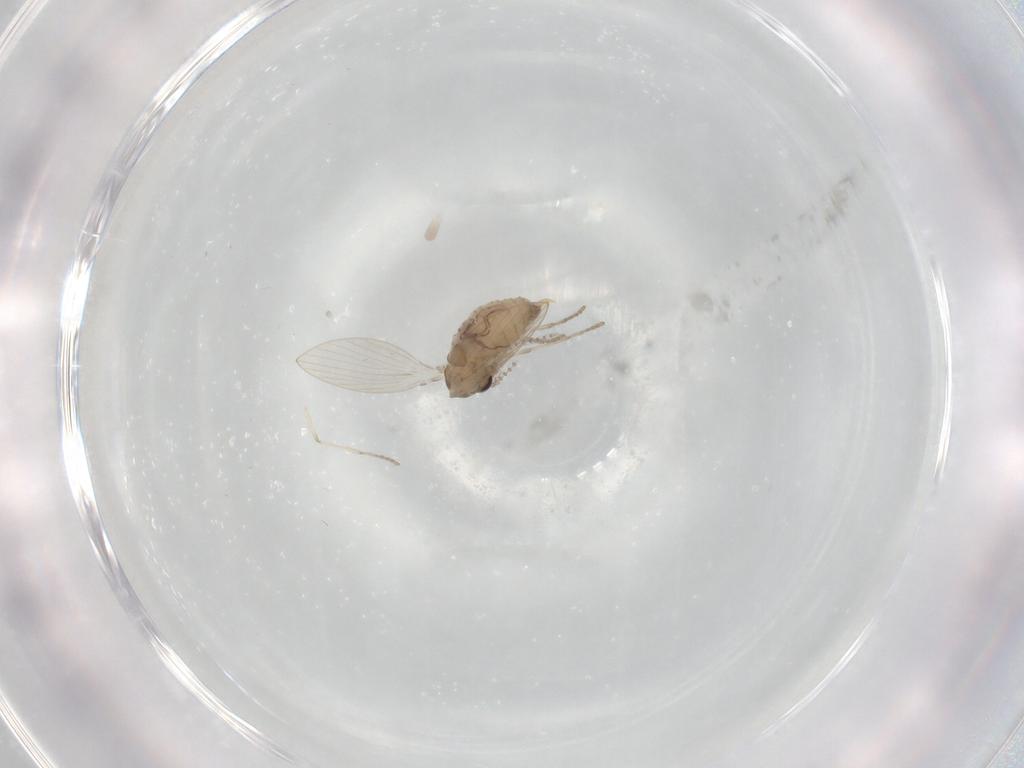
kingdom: Animalia
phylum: Arthropoda
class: Insecta
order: Diptera
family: Psychodidae
